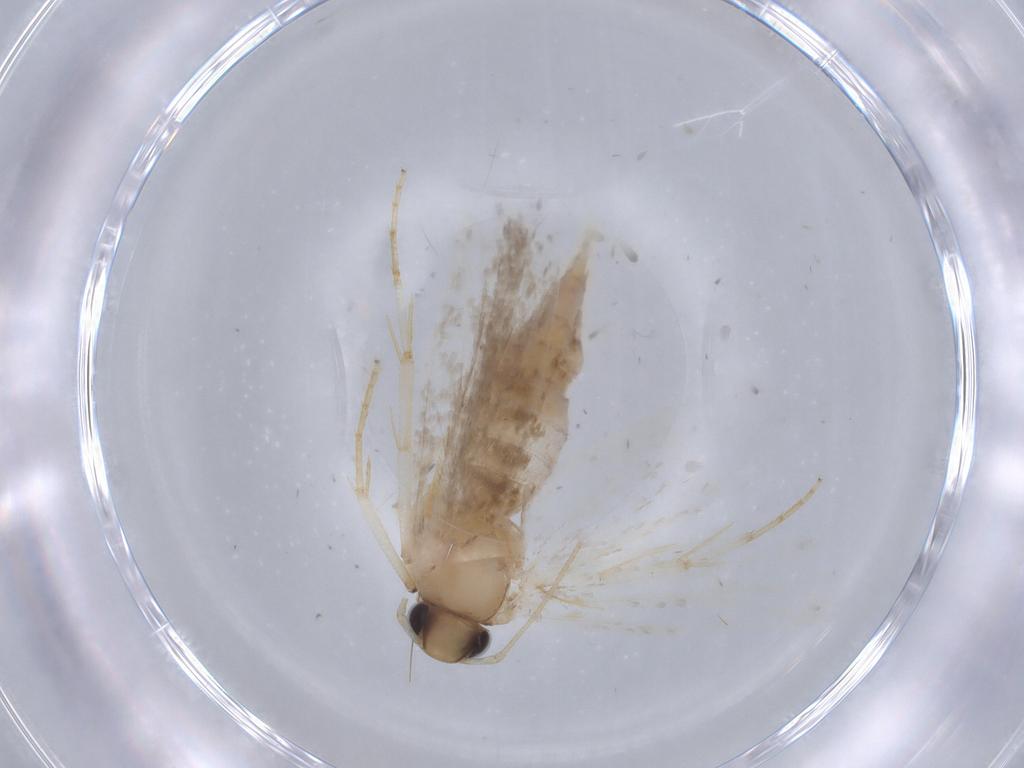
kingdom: Animalia
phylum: Arthropoda
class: Insecta
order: Lepidoptera
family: Gelechiidae
